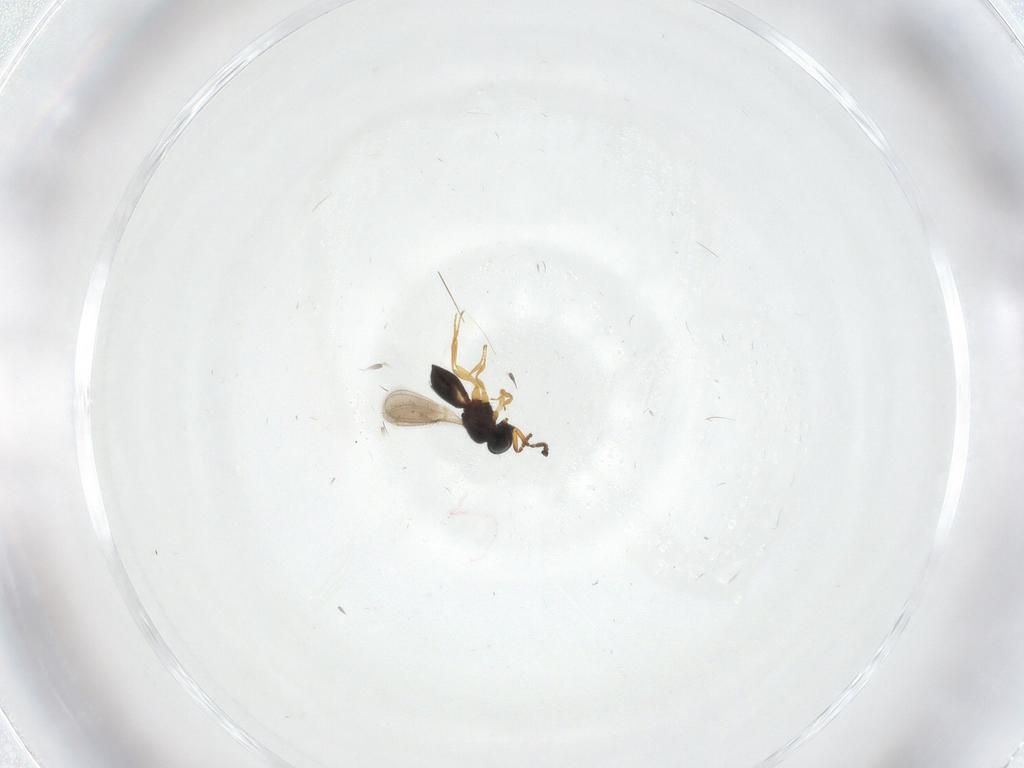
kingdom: Animalia
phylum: Arthropoda
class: Insecta
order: Hymenoptera
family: Scelionidae
